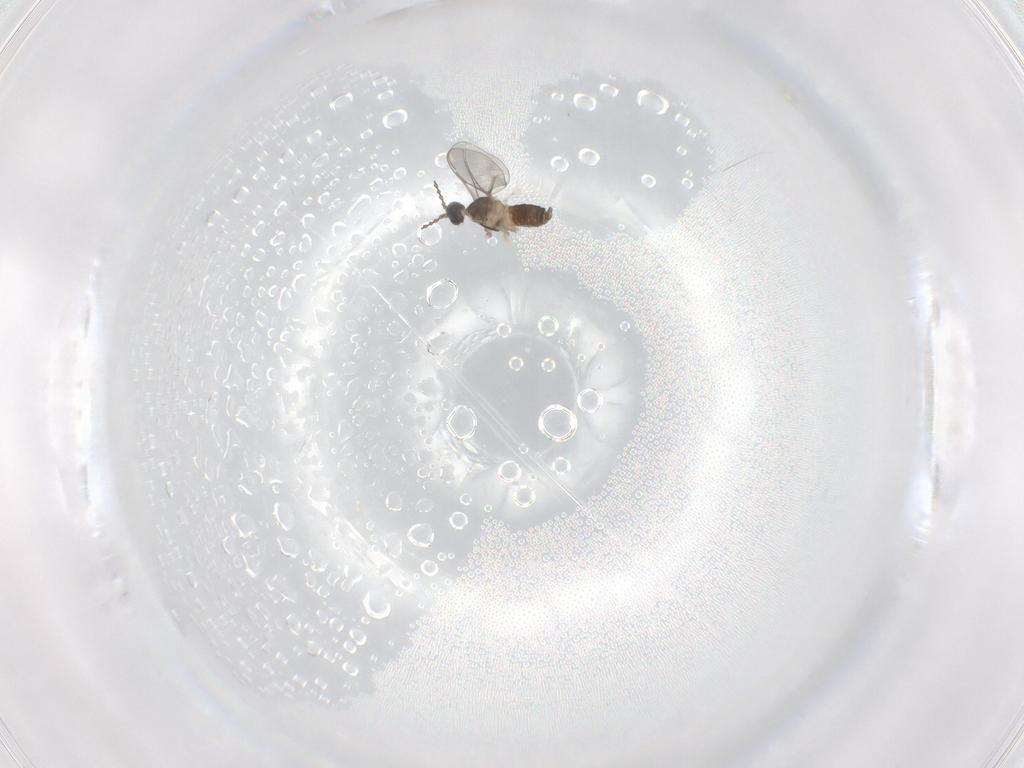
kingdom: Animalia
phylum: Arthropoda
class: Insecta
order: Diptera
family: Cecidomyiidae
